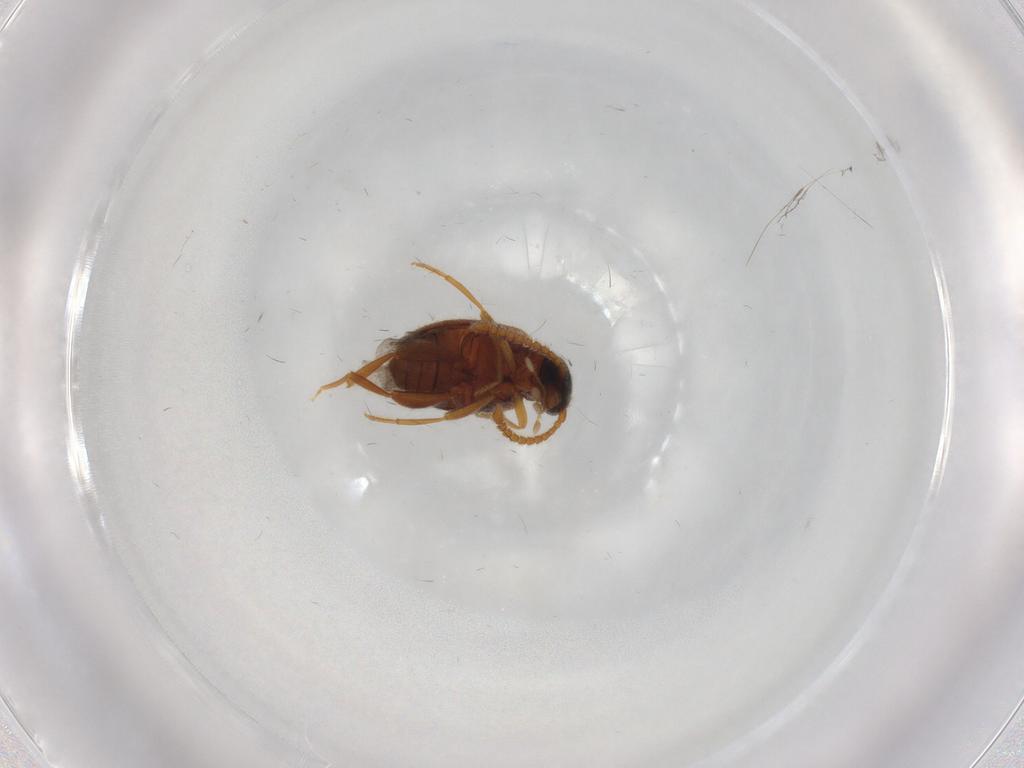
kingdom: Animalia
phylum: Arthropoda
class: Insecta
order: Coleoptera
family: Aderidae
